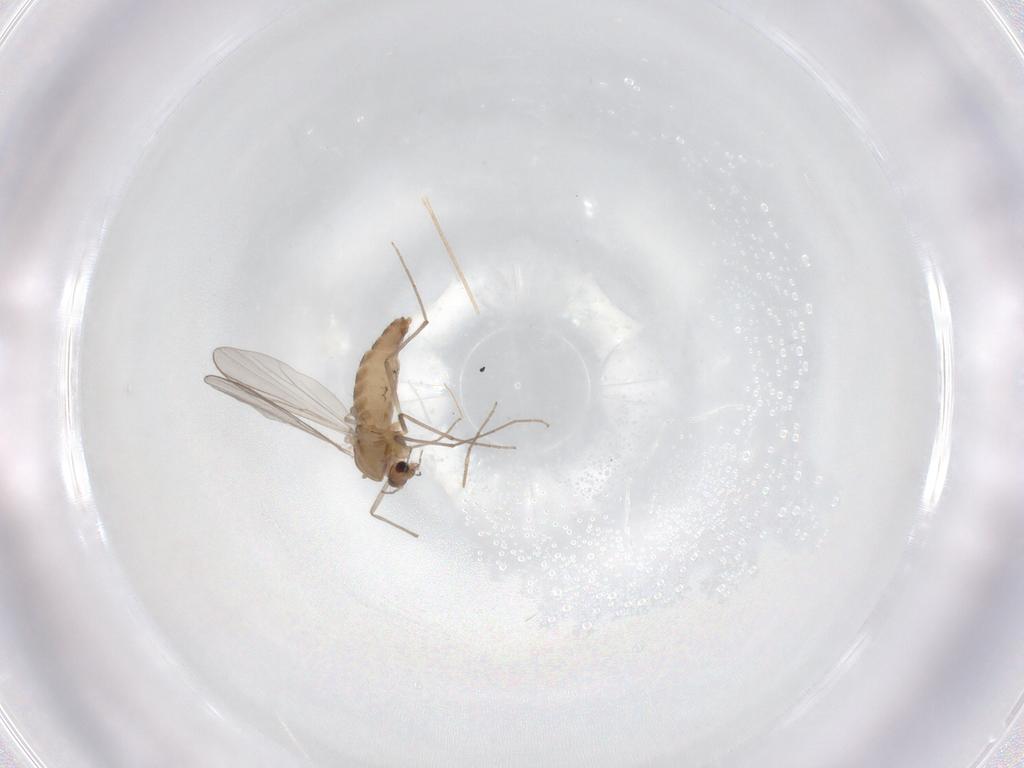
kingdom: Animalia
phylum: Arthropoda
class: Insecta
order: Diptera
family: Chironomidae
